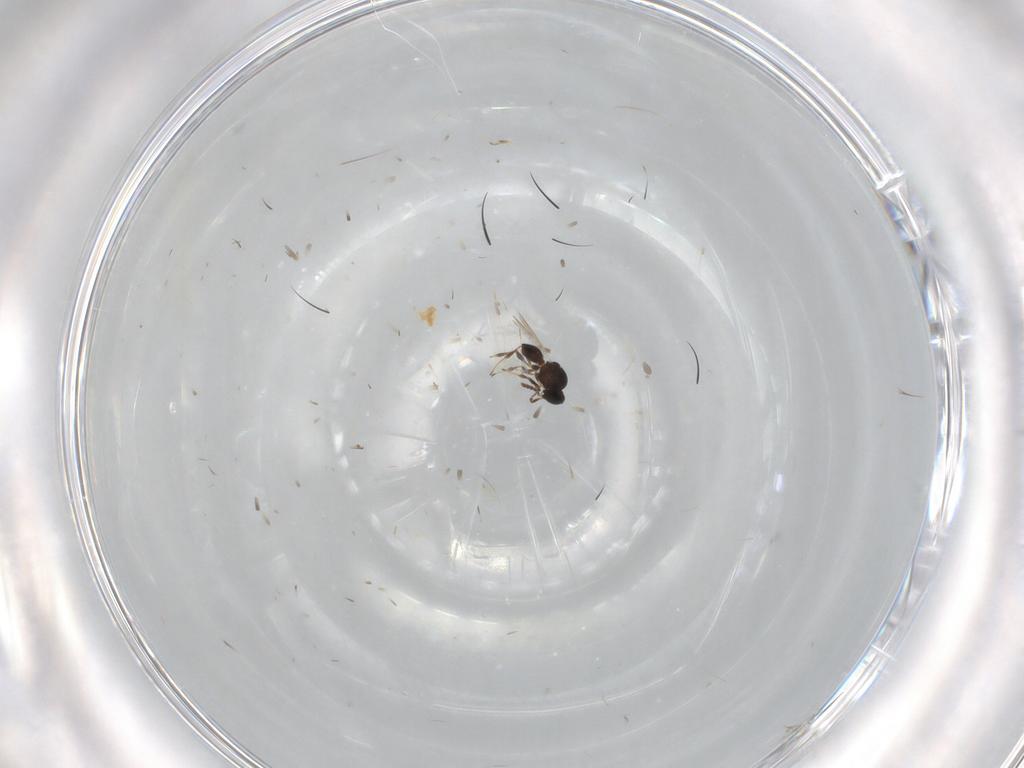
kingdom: Animalia
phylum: Arthropoda
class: Insecta
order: Hymenoptera
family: Platygastridae
